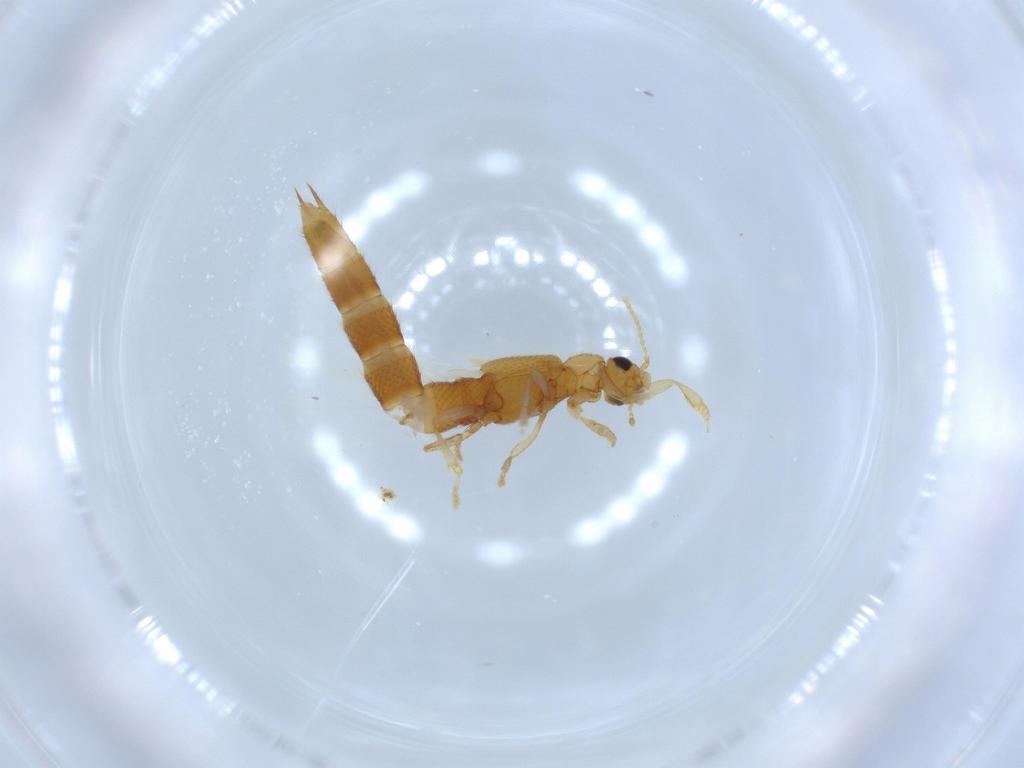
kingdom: Animalia
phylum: Arthropoda
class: Insecta
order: Coleoptera
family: Staphylinidae
